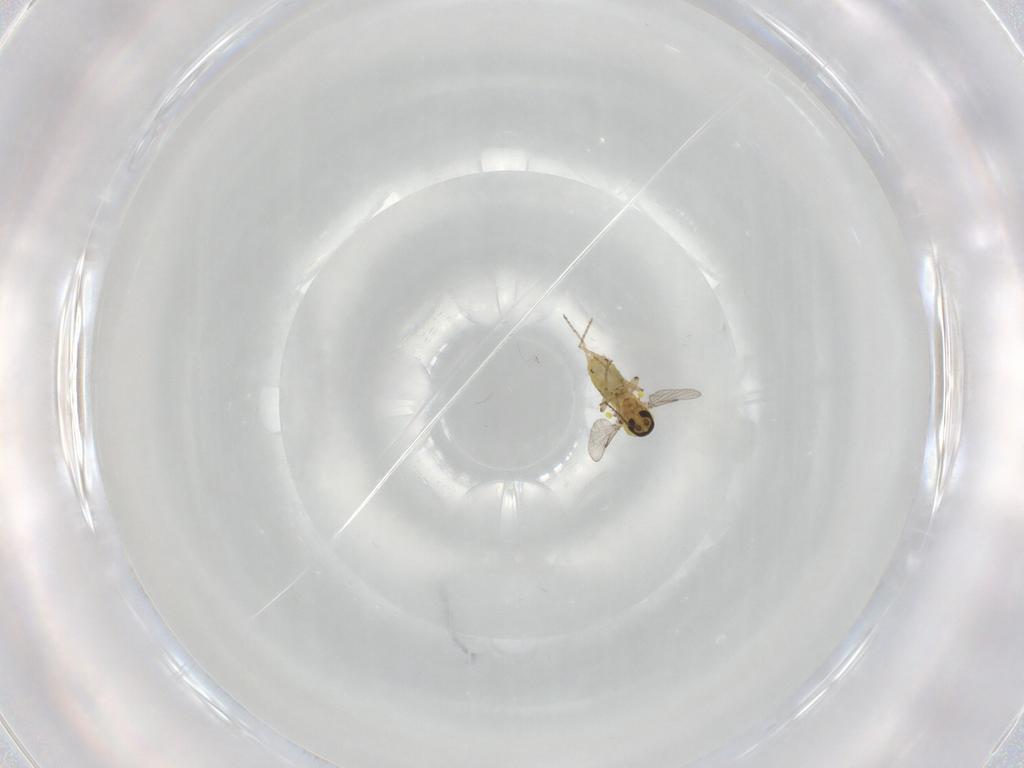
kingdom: Animalia
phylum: Arthropoda
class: Insecta
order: Diptera
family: Ceratopogonidae
